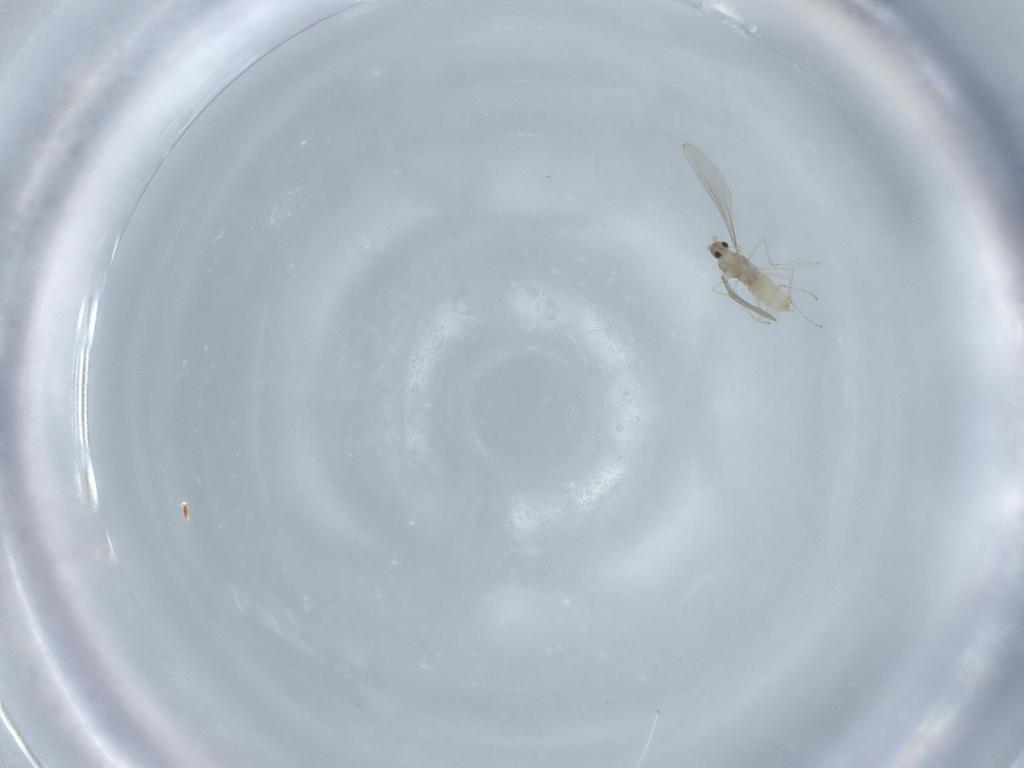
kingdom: Animalia
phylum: Arthropoda
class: Insecta
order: Diptera
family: Cecidomyiidae
